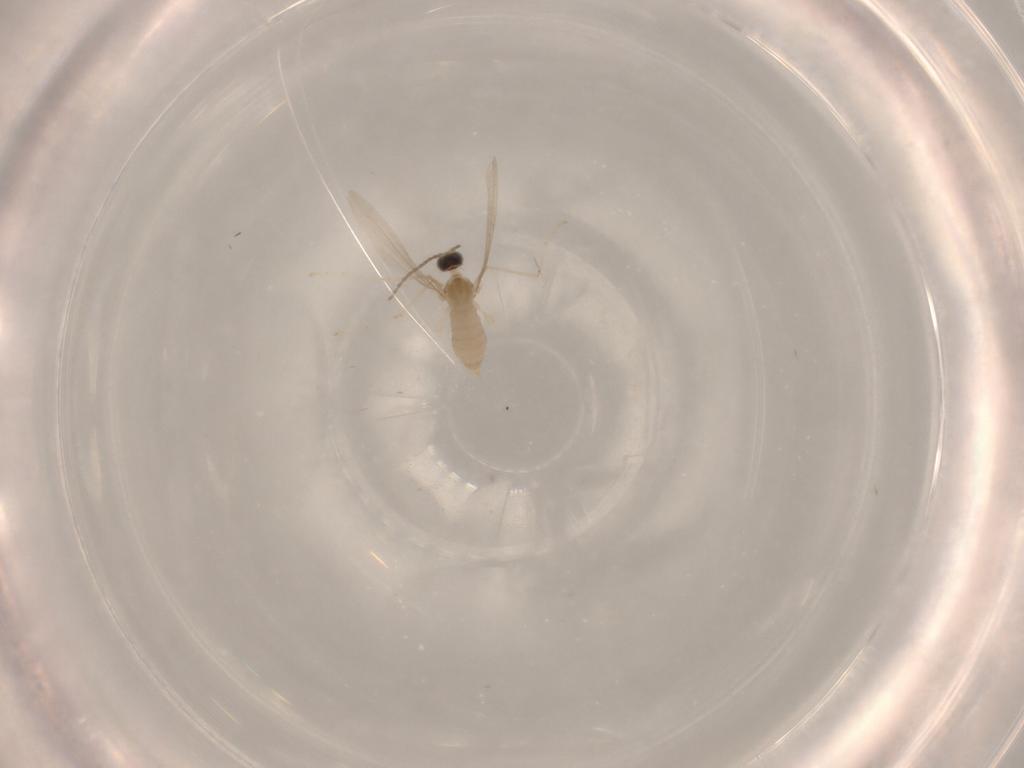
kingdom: Animalia
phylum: Arthropoda
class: Insecta
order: Diptera
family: Cecidomyiidae
